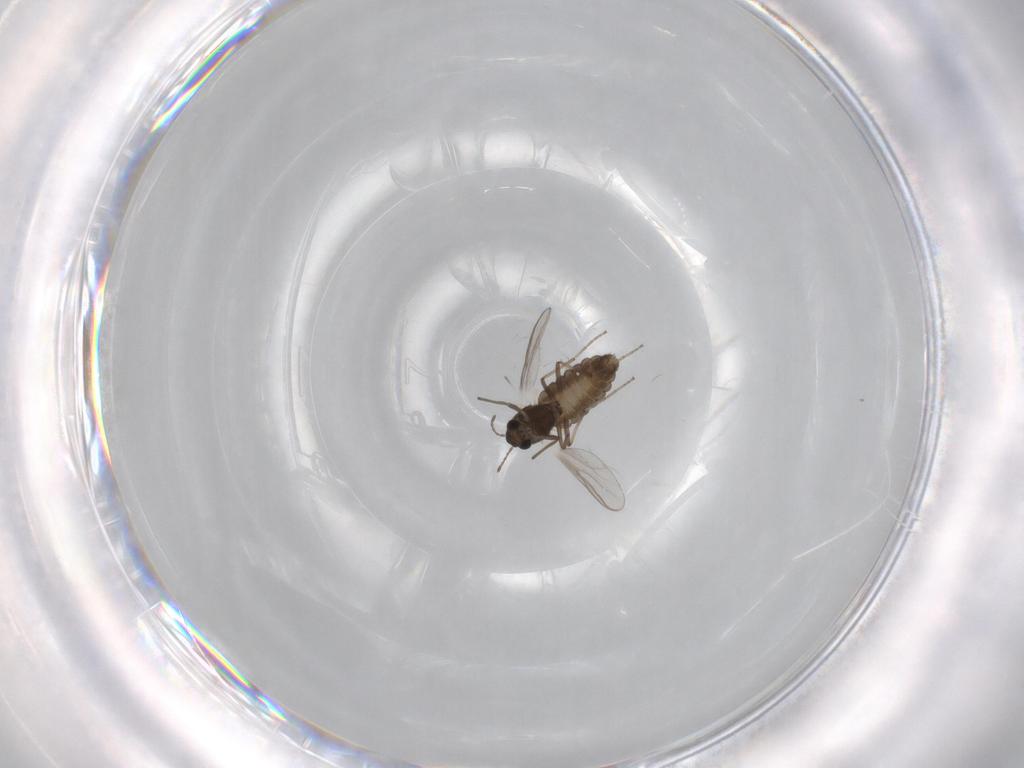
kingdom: Animalia
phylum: Arthropoda
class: Insecta
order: Diptera
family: Chironomidae
